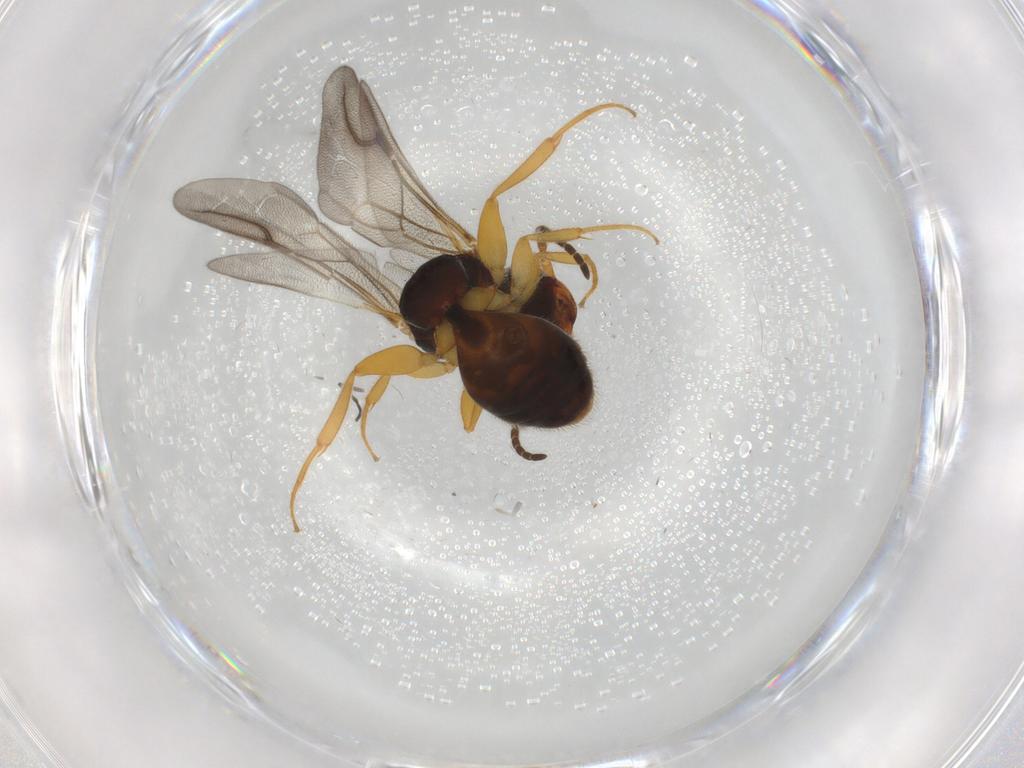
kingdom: Animalia
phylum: Arthropoda
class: Insecta
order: Hymenoptera
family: Bethylidae
